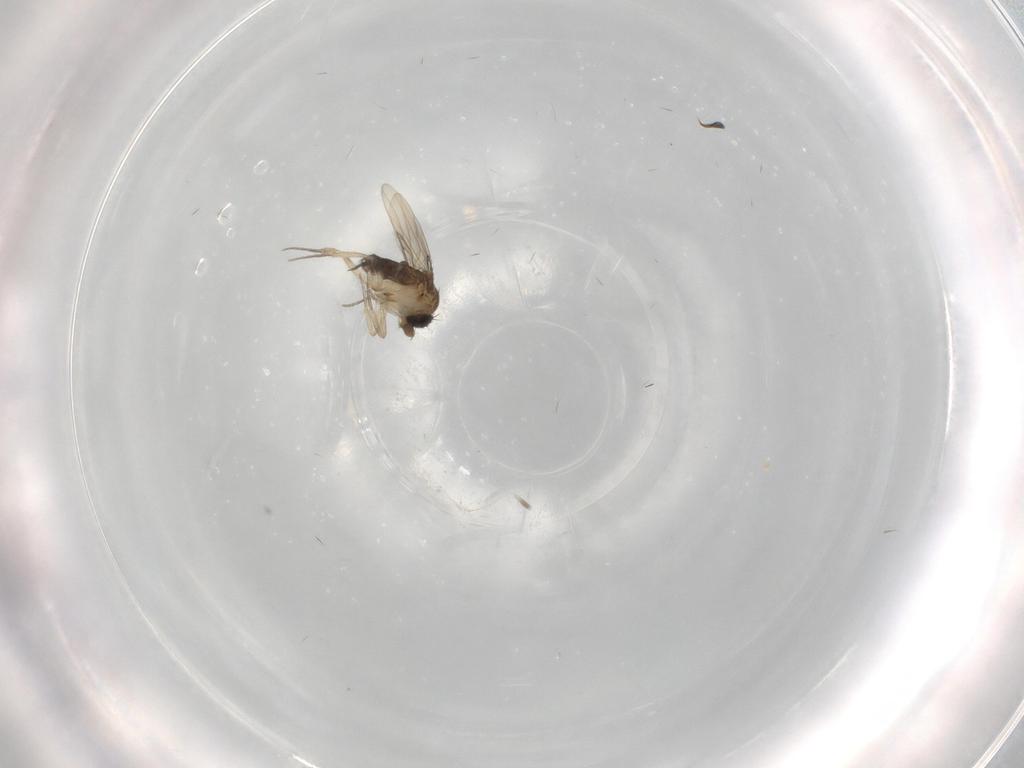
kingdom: Animalia
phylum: Arthropoda
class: Insecta
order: Diptera
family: Phoridae
